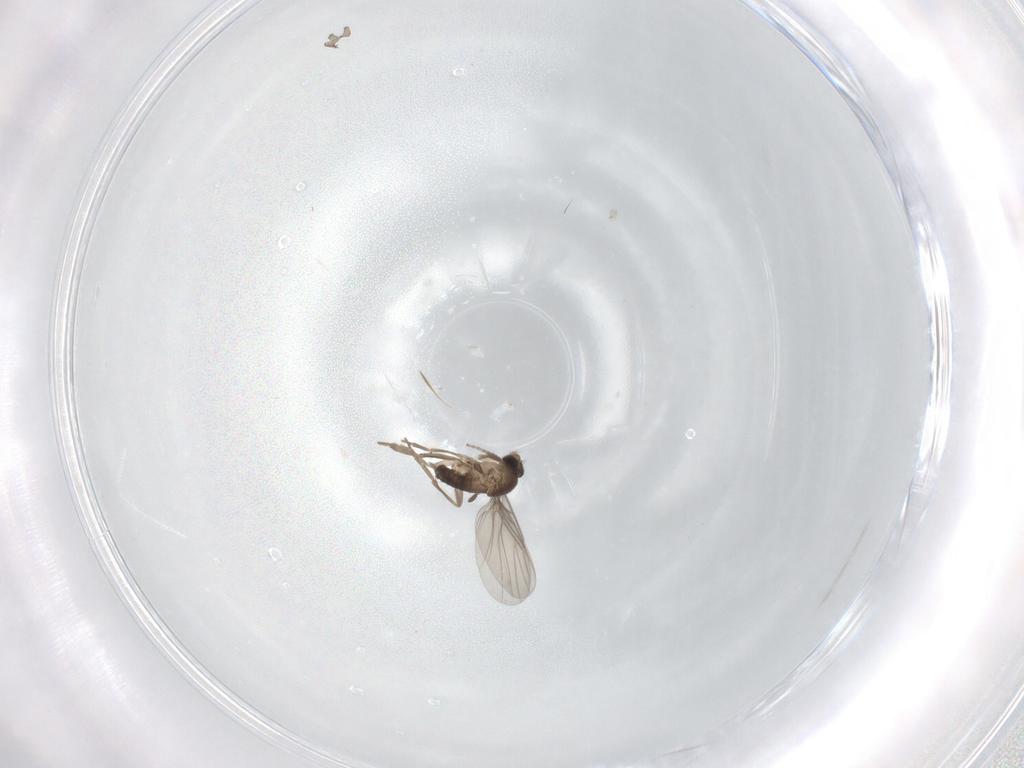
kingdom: Animalia
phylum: Arthropoda
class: Insecta
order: Diptera
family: Phoridae
